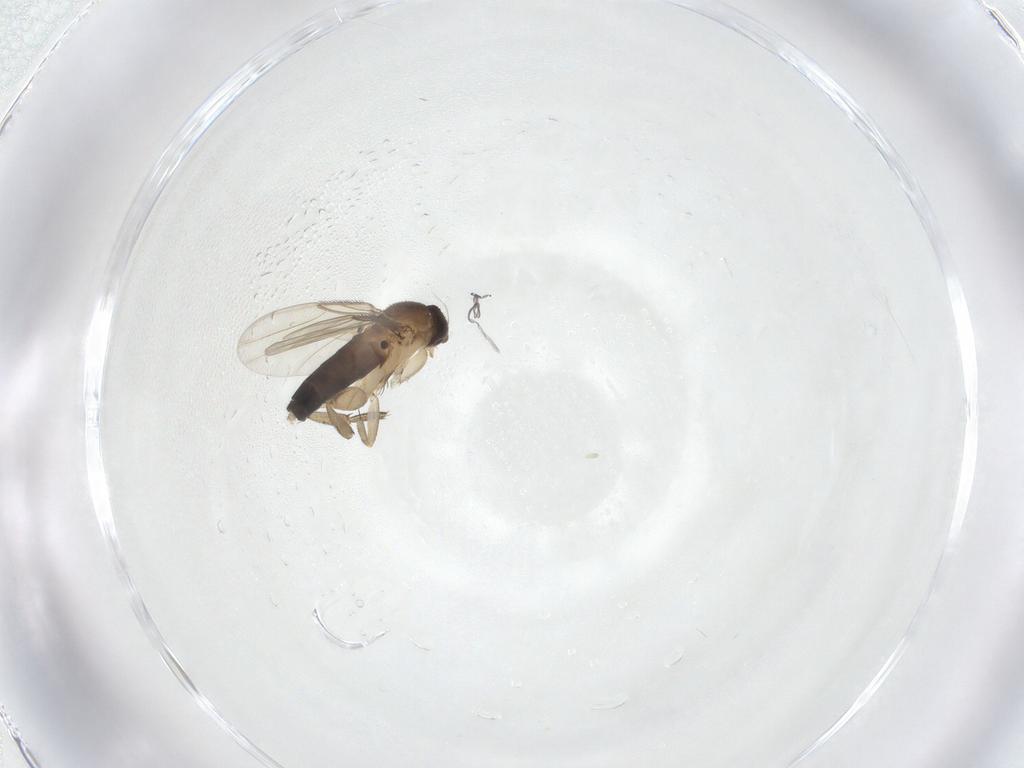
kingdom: Animalia
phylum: Arthropoda
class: Insecta
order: Diptera
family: Phoridae
